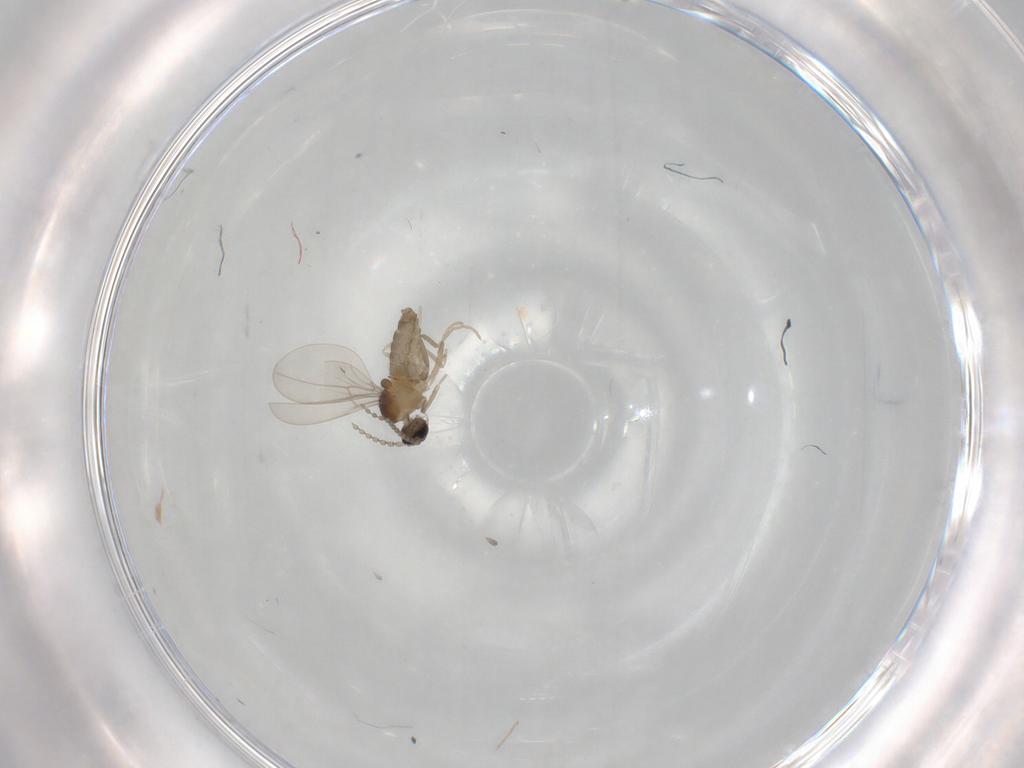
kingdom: Animalia
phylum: Arthropoda
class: Insecta
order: Diptera
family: Cecidomyiidae
